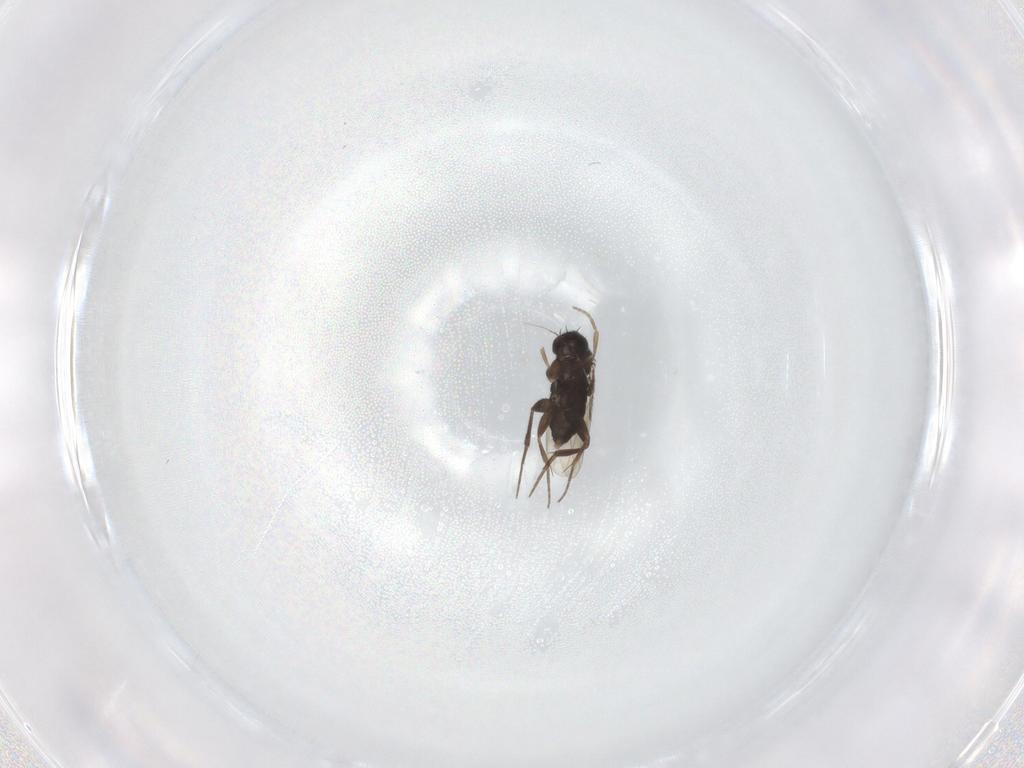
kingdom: Animalia
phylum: Arthropoda
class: Insecta
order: Diptera
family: Phoridae
